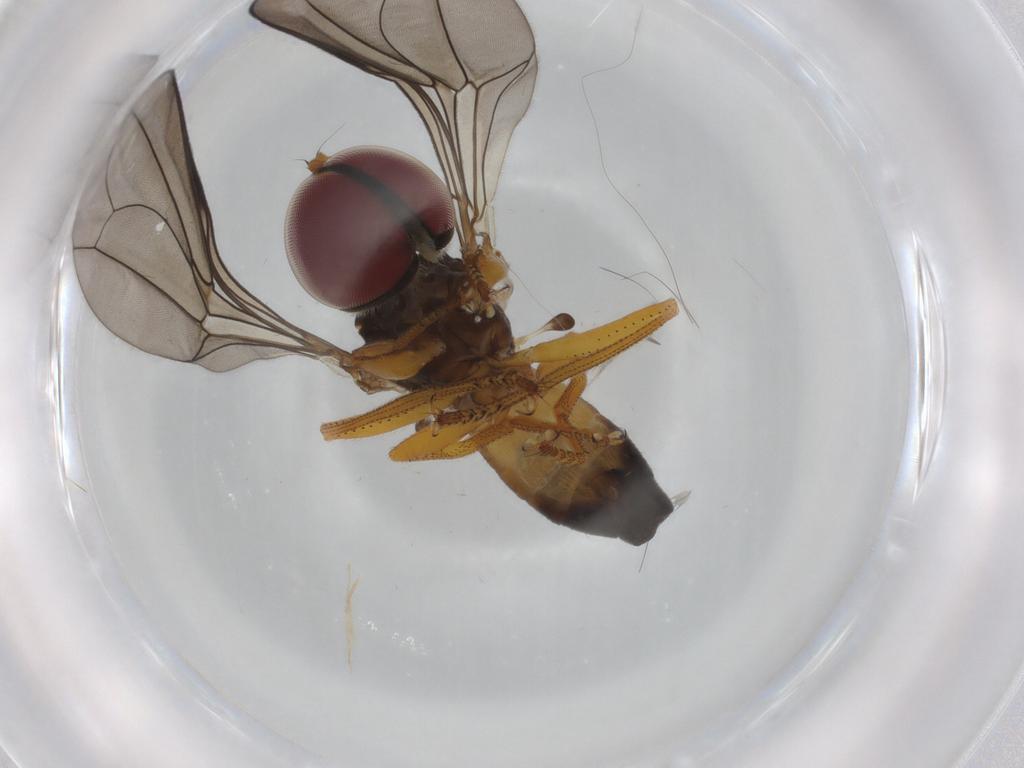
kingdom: Animalia
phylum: Arthropoda
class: Insecta
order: Diptera
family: Pipunculidae
